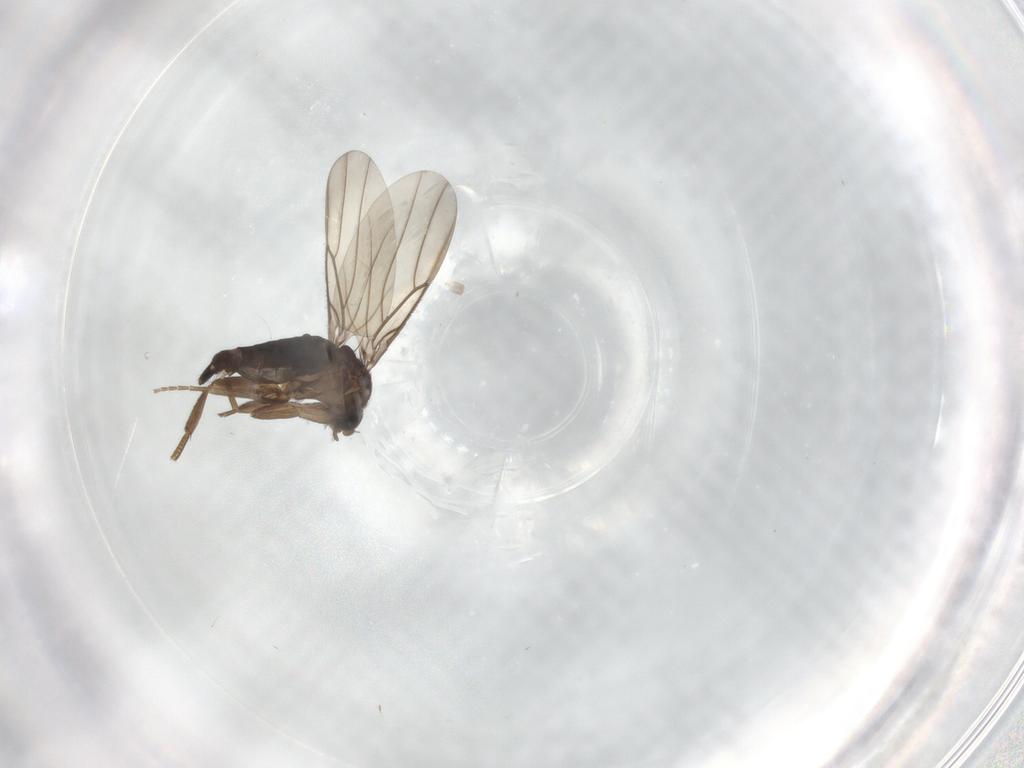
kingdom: Animalia
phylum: Arthropoda
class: Insecta
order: Diptera
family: Phoridae
